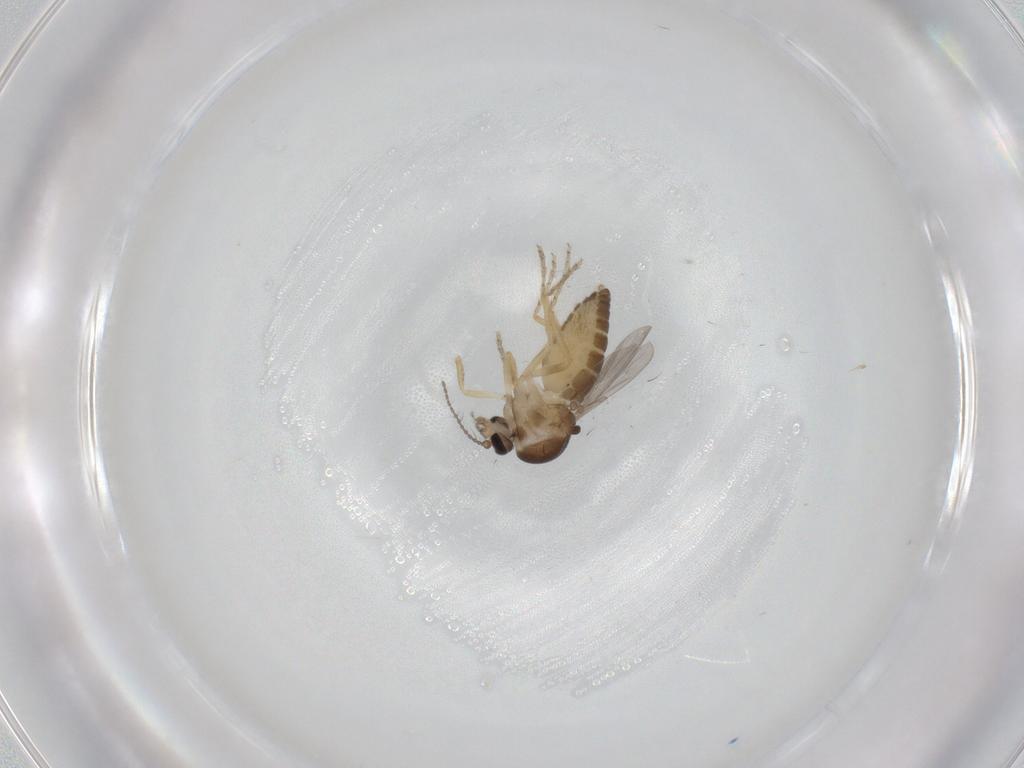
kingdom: Animalia
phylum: Arthropoda
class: Insecta
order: Diptera
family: Ceratopogonidae
